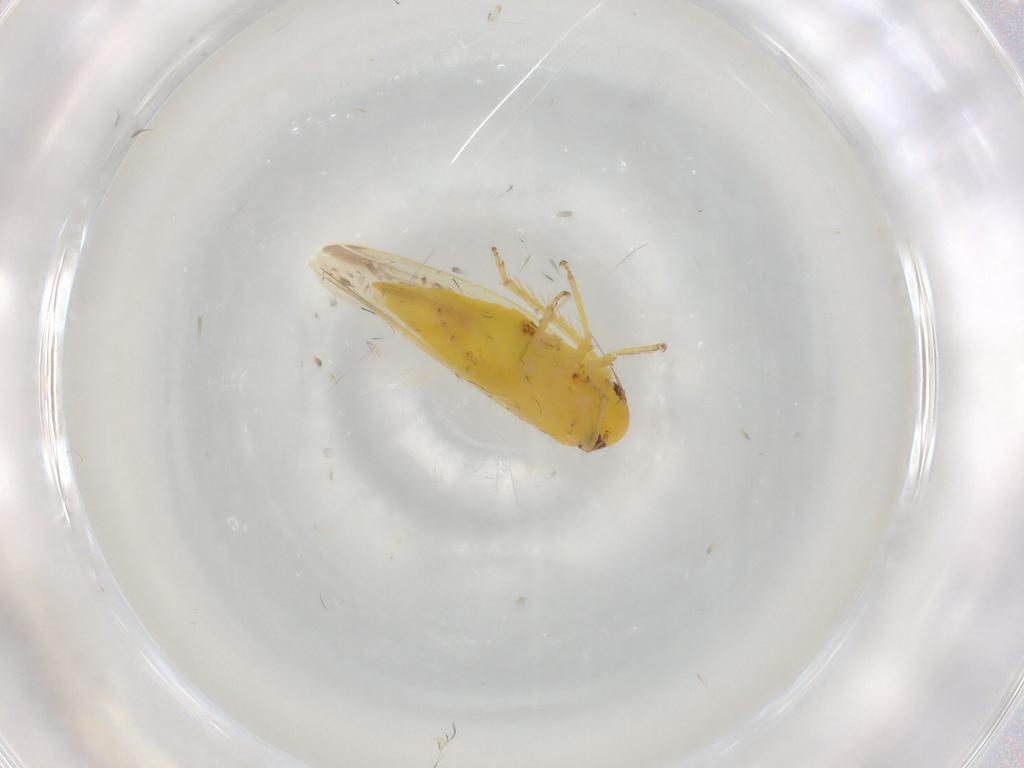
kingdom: Animalia
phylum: Arthropoda
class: Insecta
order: Hemiptera
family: Cicadellidae
